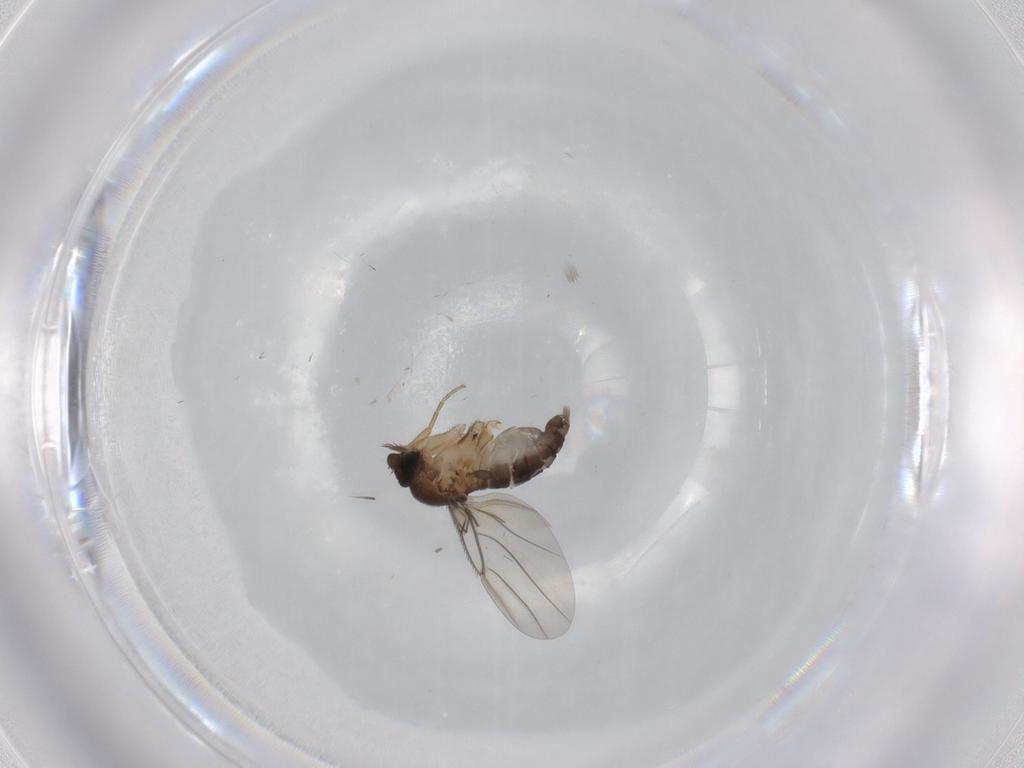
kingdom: Animalia
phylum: Arthropoda
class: Insecta
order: Diptera
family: Phoridae
